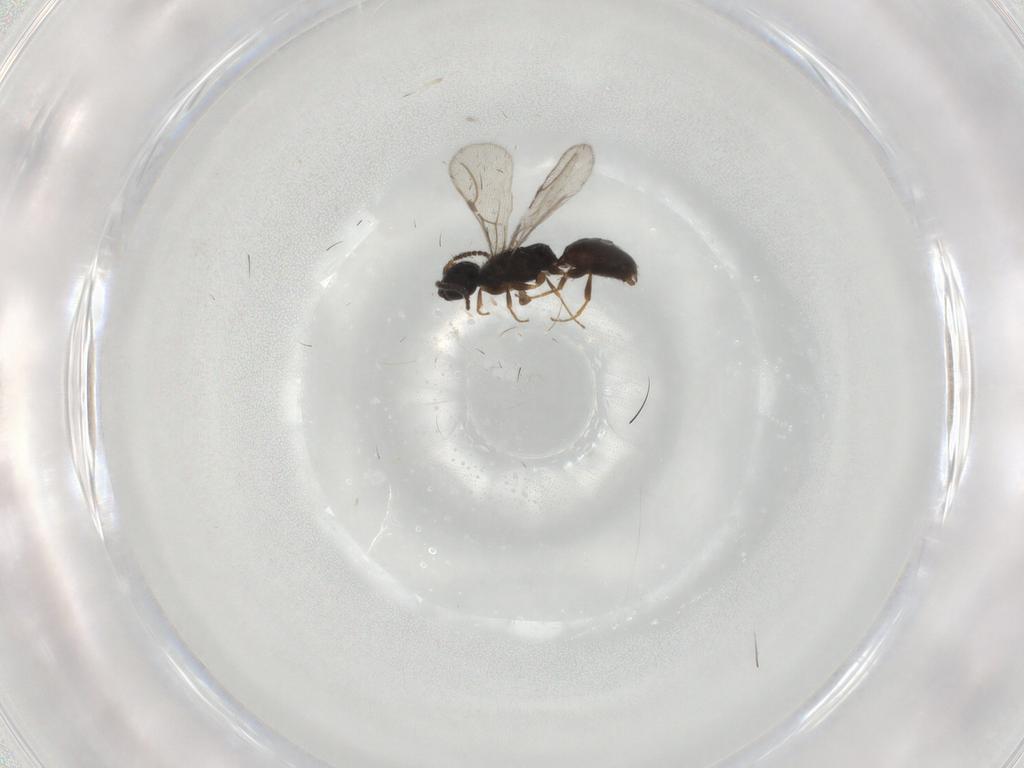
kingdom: Animalia
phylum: Arthropoda
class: Insecta
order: Hymenoptera
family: Bethylidae
